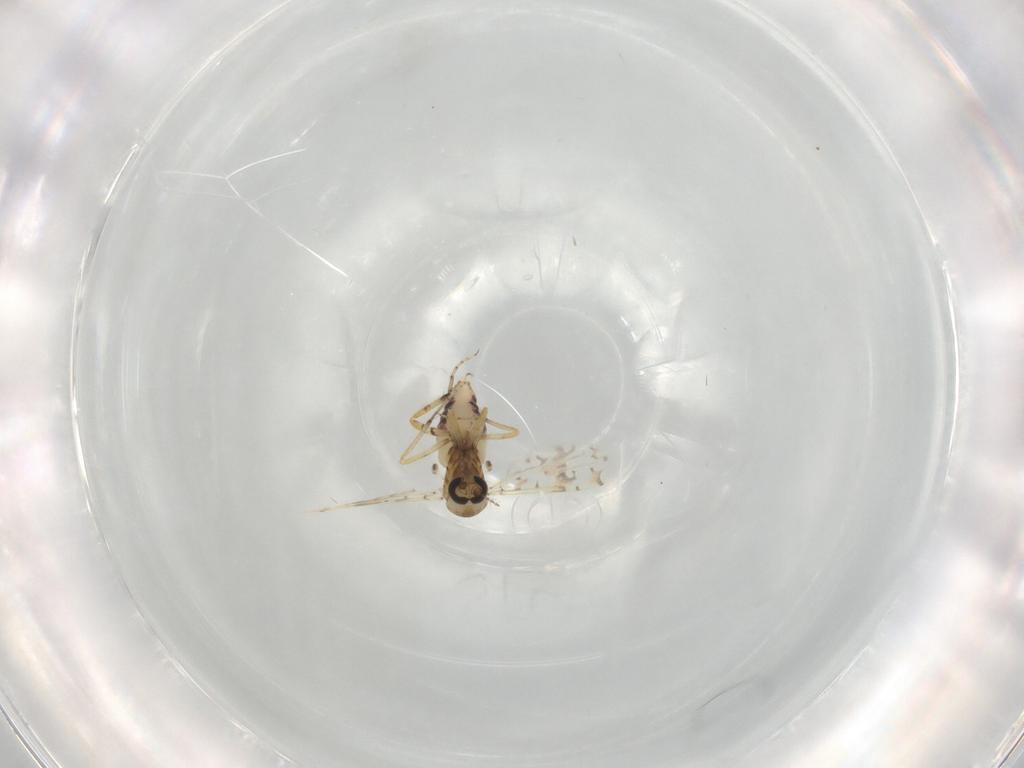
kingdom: Animalia
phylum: Arthropoda
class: Insecta
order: Diptera
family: Ceratopogonidae
